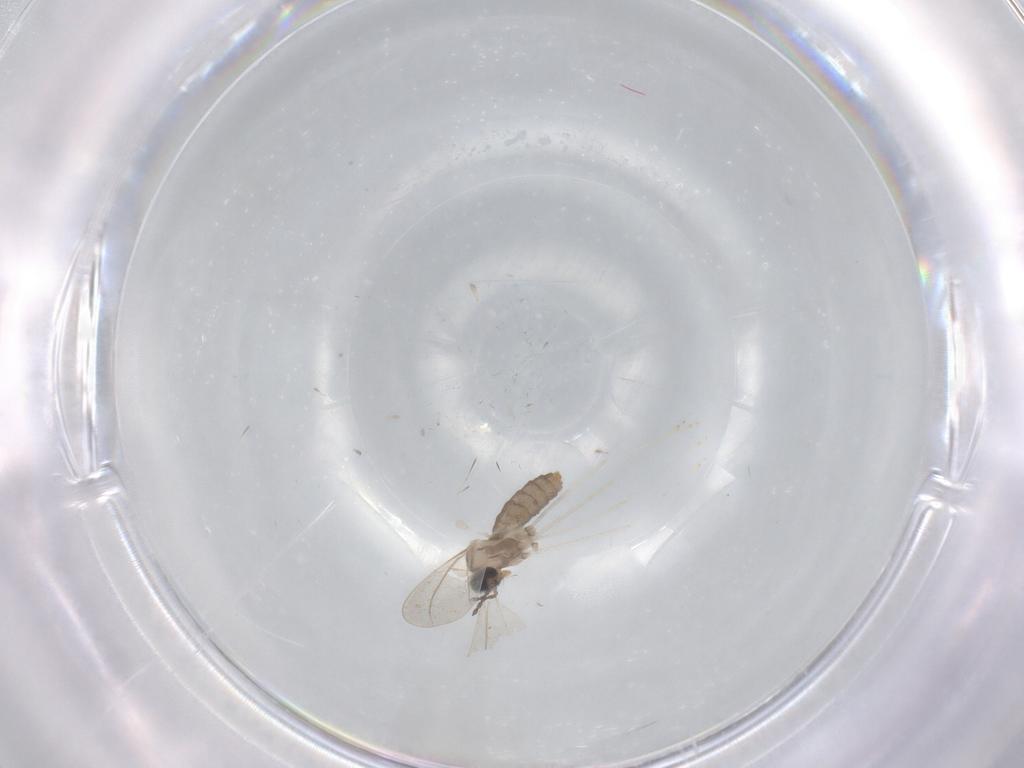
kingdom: Animalia
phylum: Arthropoda
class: Insecta
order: Diptera
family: Cecidomyiidae
